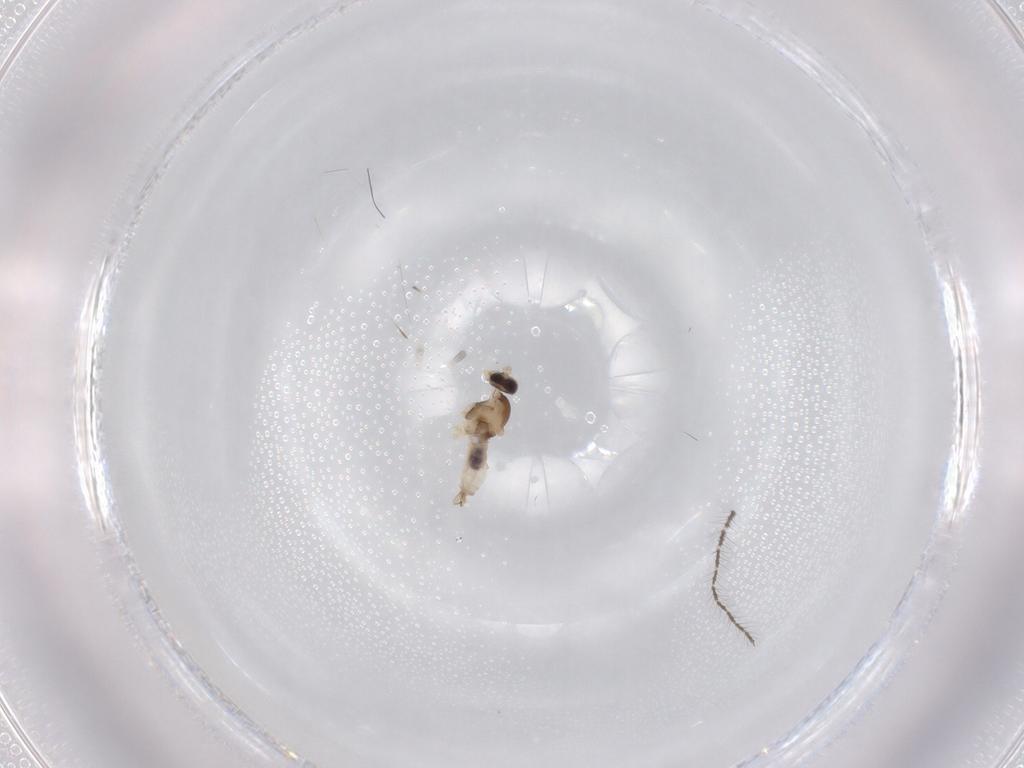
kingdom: Animalia
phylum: Arthropoda
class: Insecta
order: Diptera
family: Cecidomyiidae
